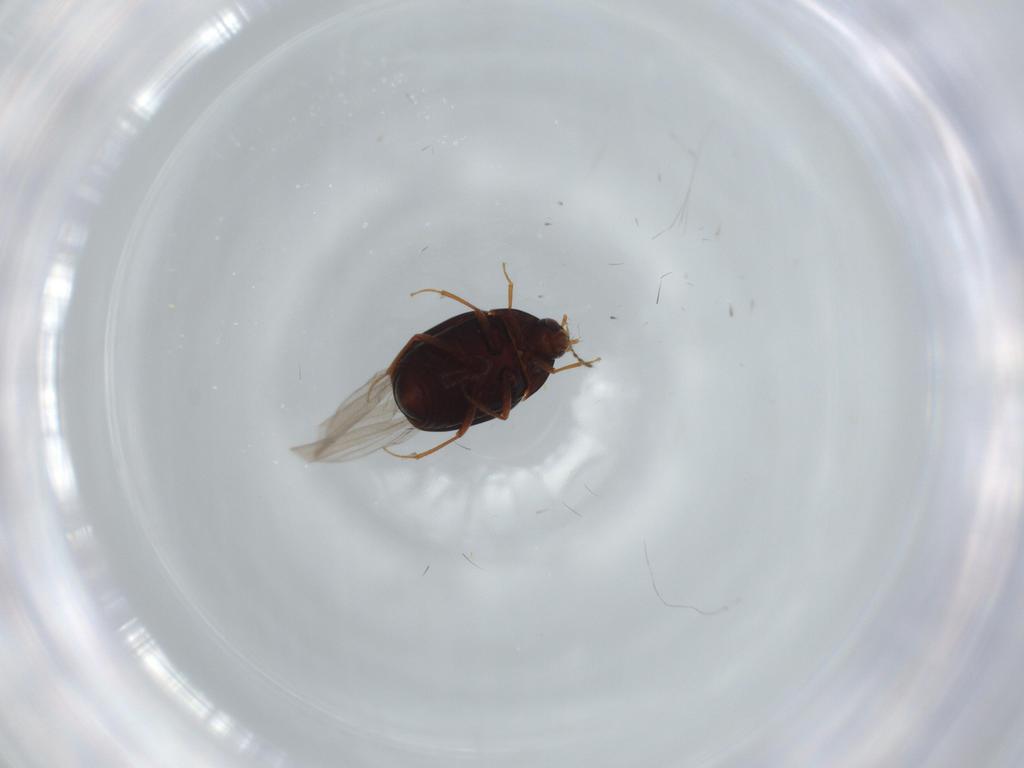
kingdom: Animalia
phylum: Arthropoda
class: Insecta
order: Coleoptera
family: Staphylinidae
